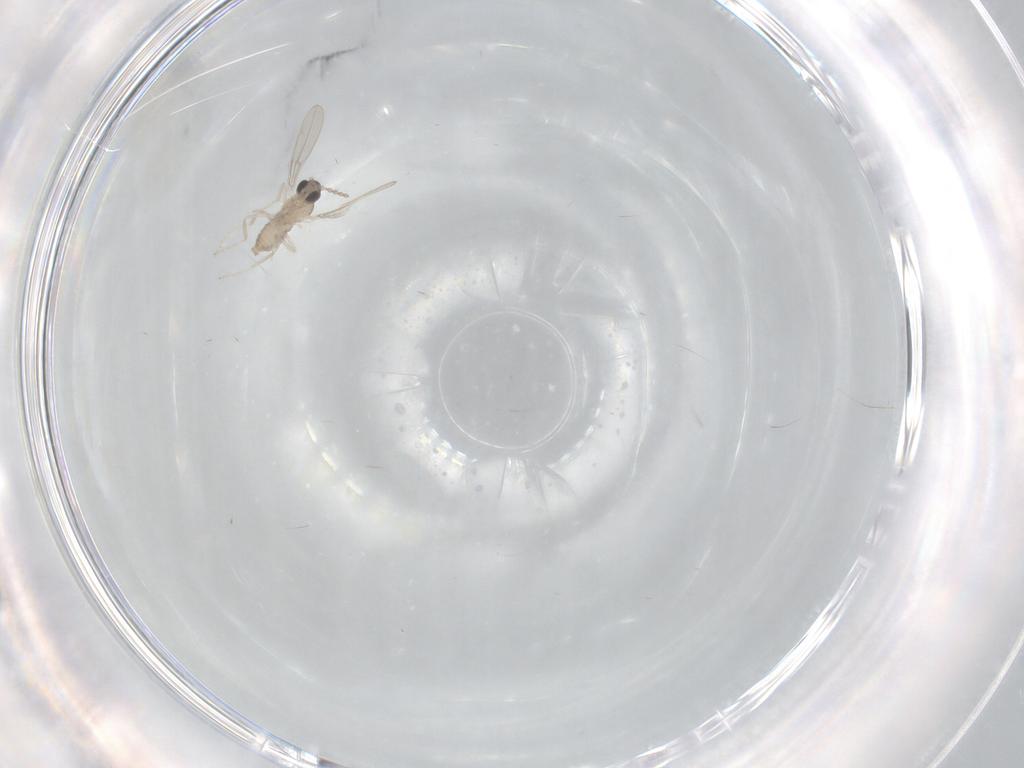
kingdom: Animalia
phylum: Arthropoda
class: Insecta
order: Diptera
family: Cecidomyiidae
